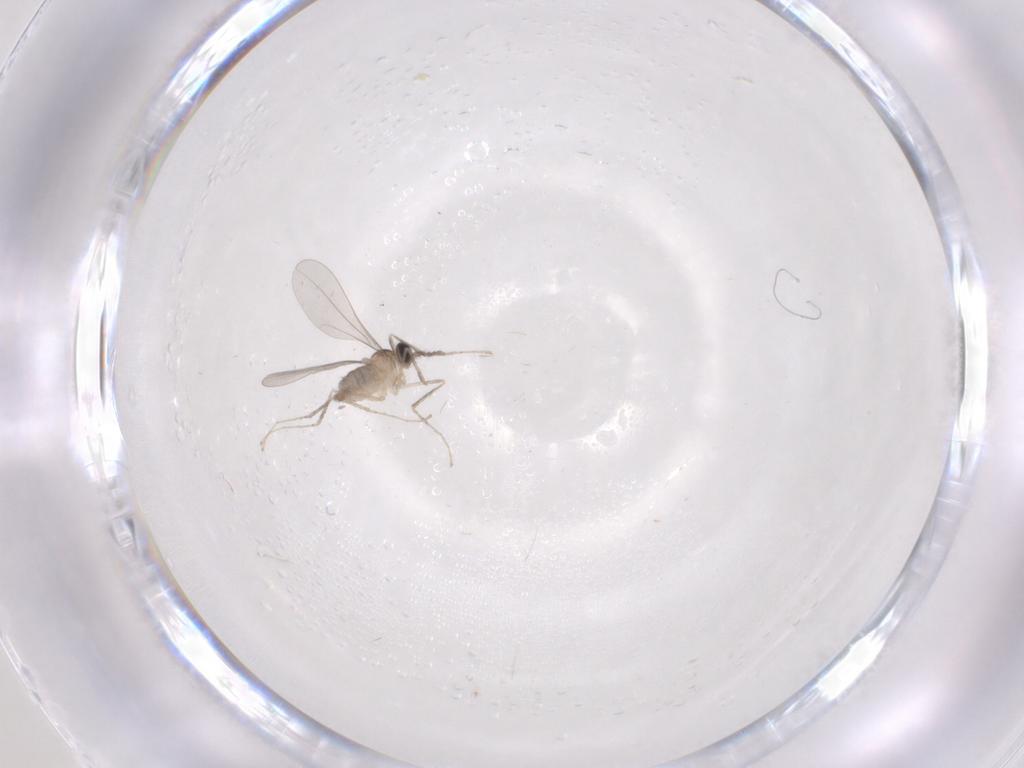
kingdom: Animalia
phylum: Arthropoda
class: Insecta
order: Diptera
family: Cecidomyiidae
